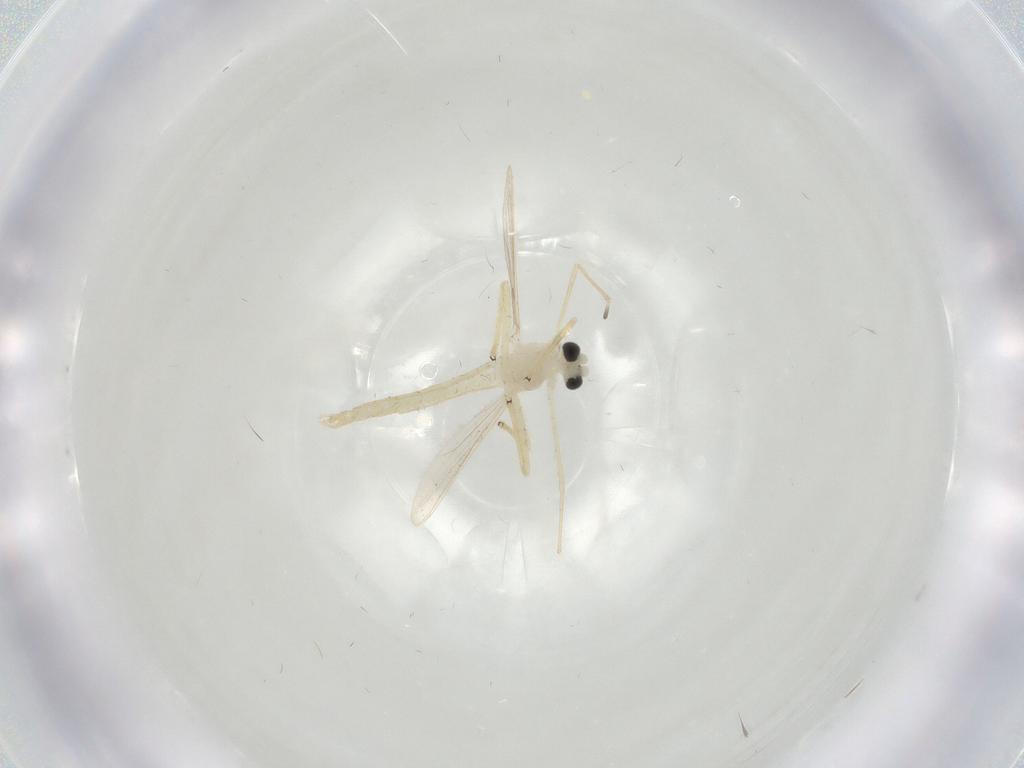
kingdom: Animalia
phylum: Arthropoda
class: Insecta
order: Diptera
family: Chironomidae
